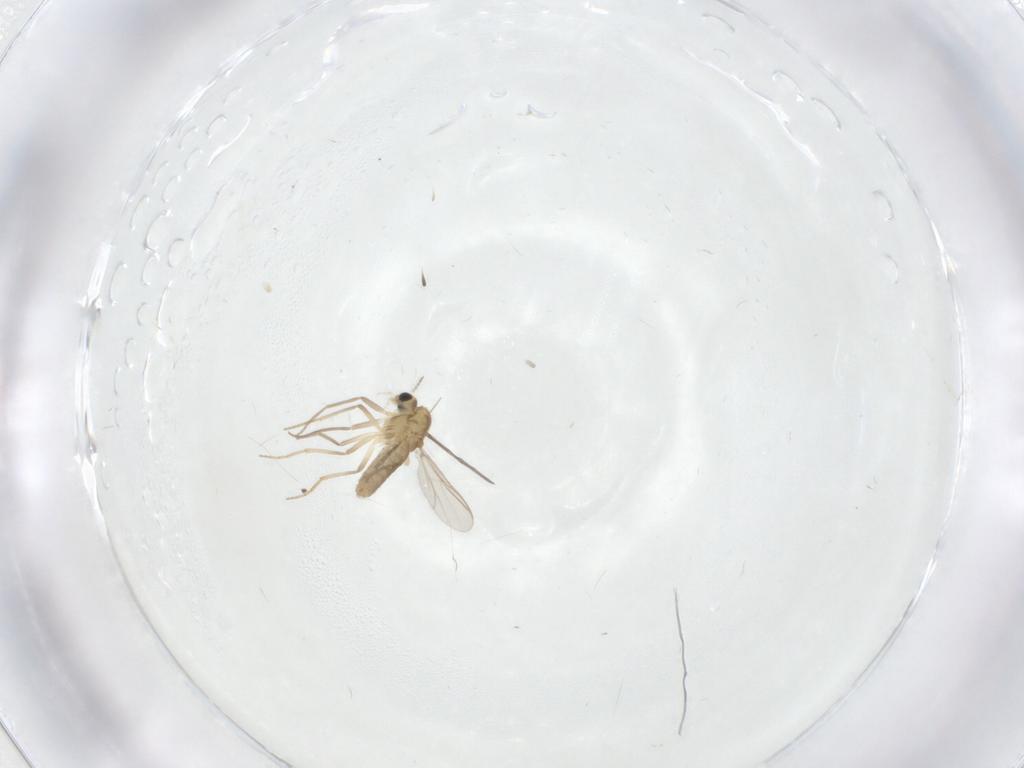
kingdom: Animalia
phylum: Arthropoda
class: Insecta
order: Diptera
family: Chironomidae
